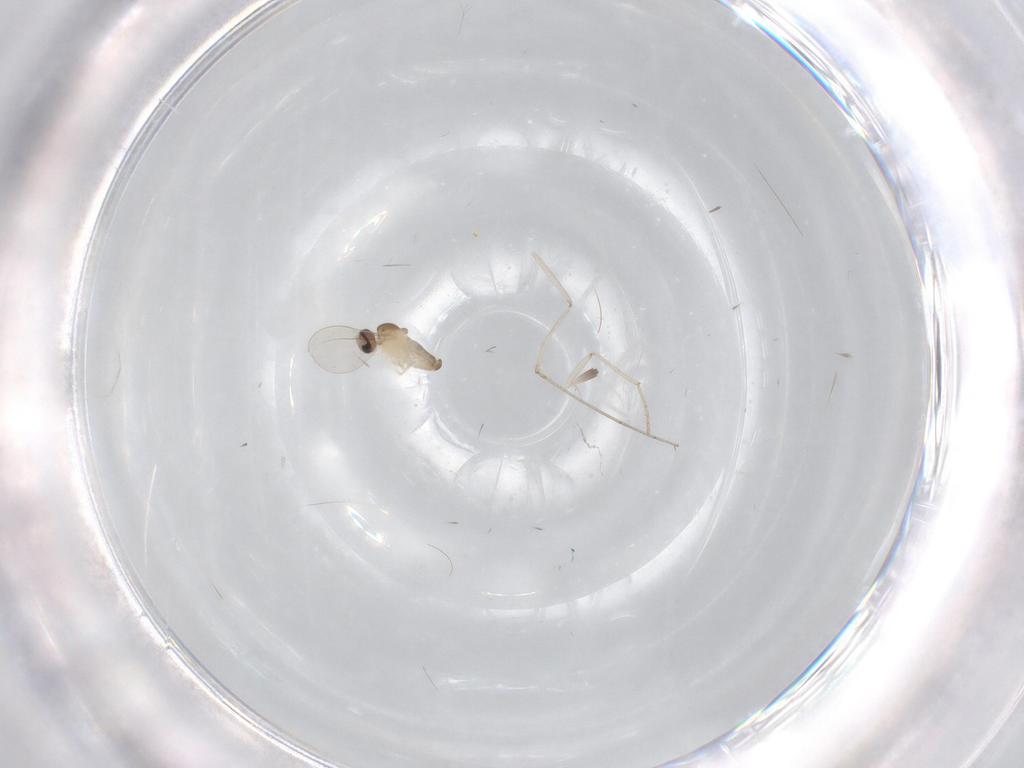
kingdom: Animalia
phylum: Arthropoda
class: Insecta
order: Diptera
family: Cecidomyiidae
